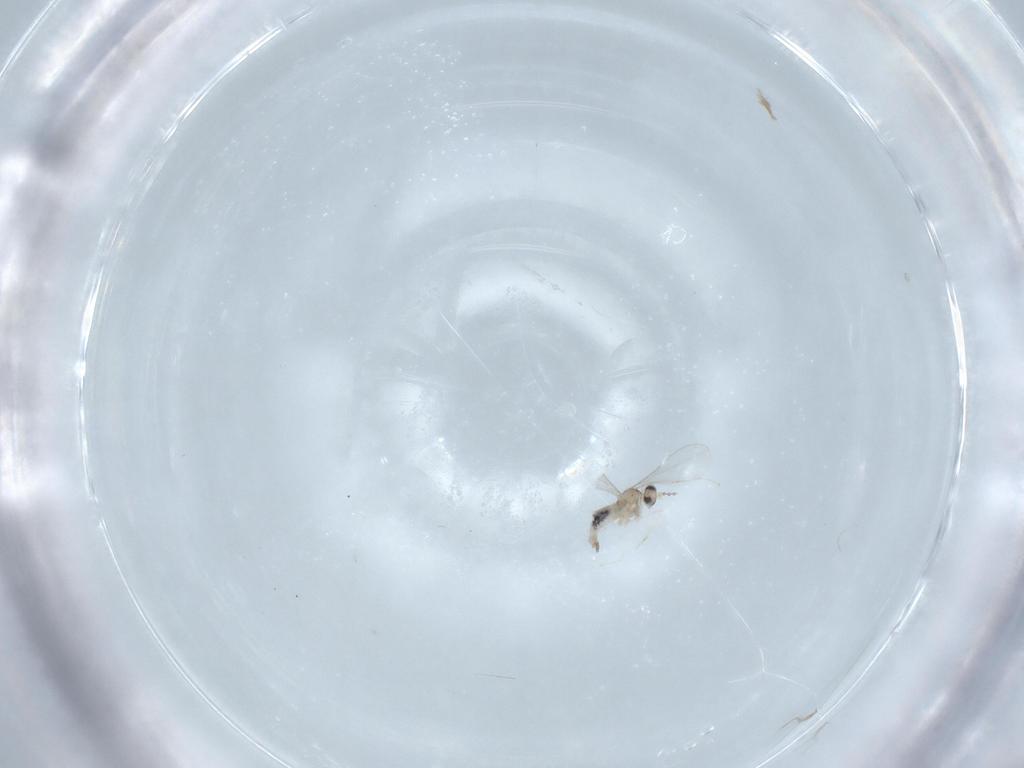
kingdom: Animalia
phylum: Arthropoda
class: Insecta
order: Diptera
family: Cecidomyiidae
